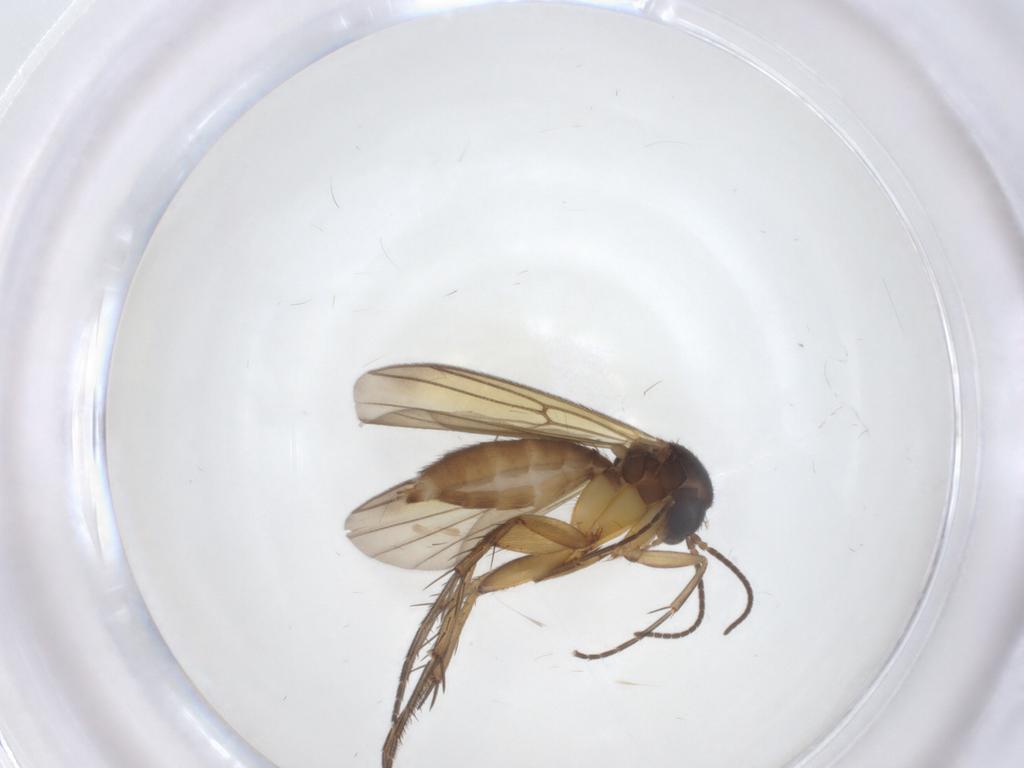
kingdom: Animalia
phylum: Arthropoda
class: Insecta
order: Diptera
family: Mycetophilidae
